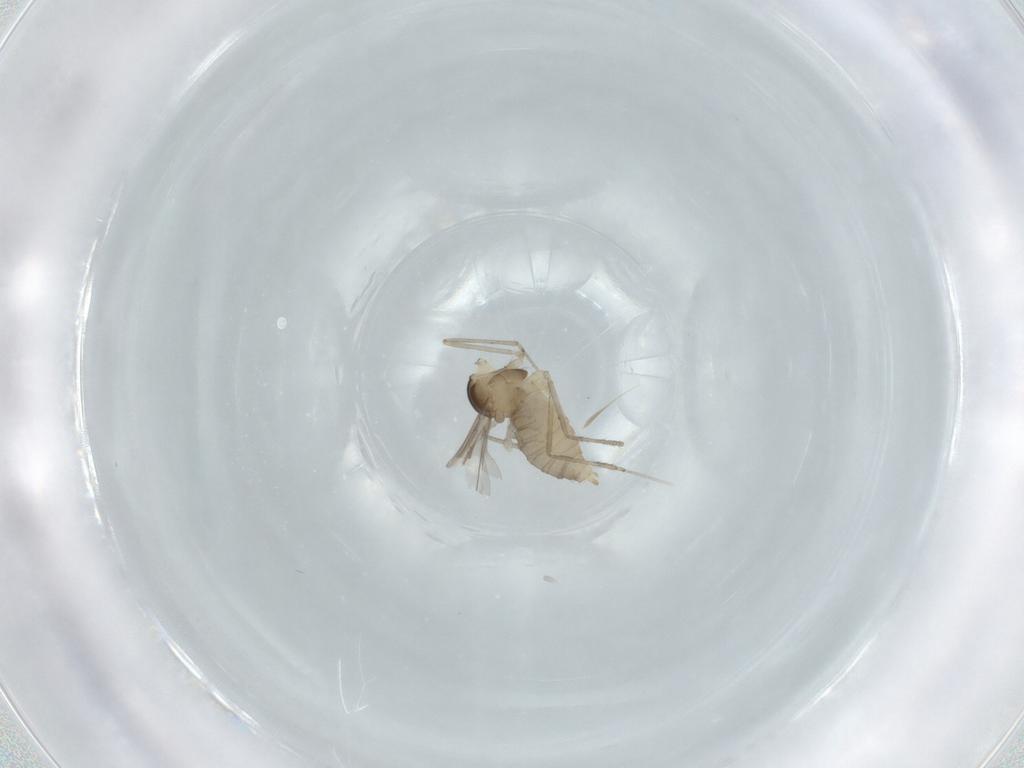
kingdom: Animalia
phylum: Arthropoda
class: Insecta
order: Diptera
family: Cecidomyiidae
